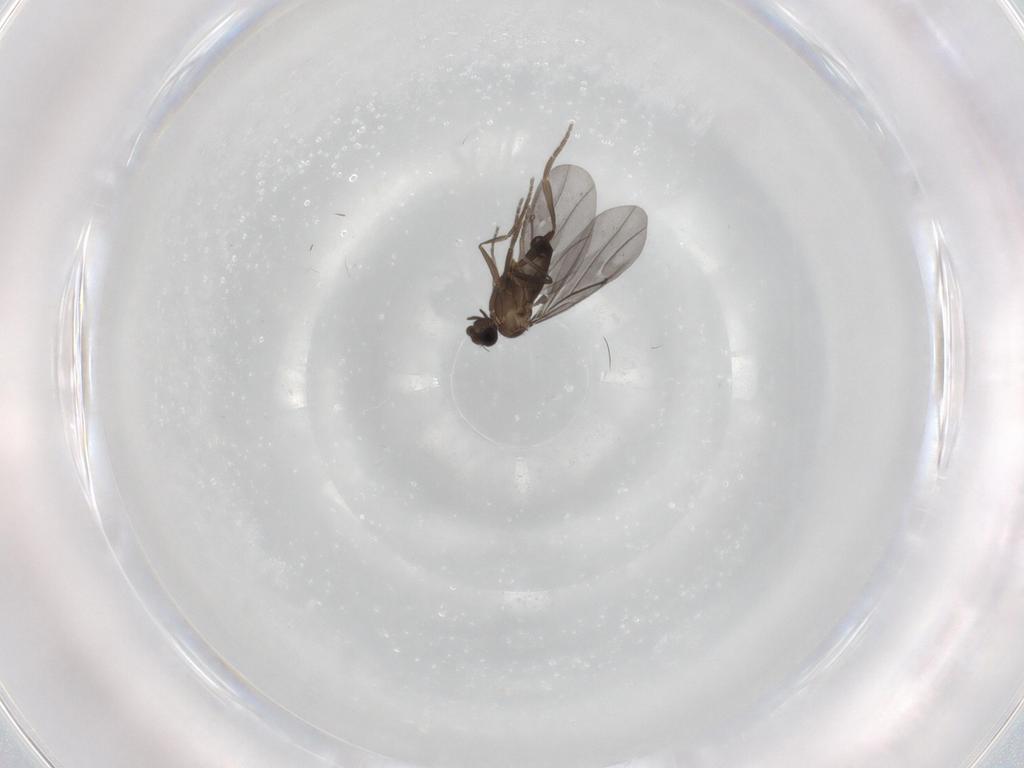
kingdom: Animalia
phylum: Arthropoda
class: Insecta
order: Diptera
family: Phoridae
